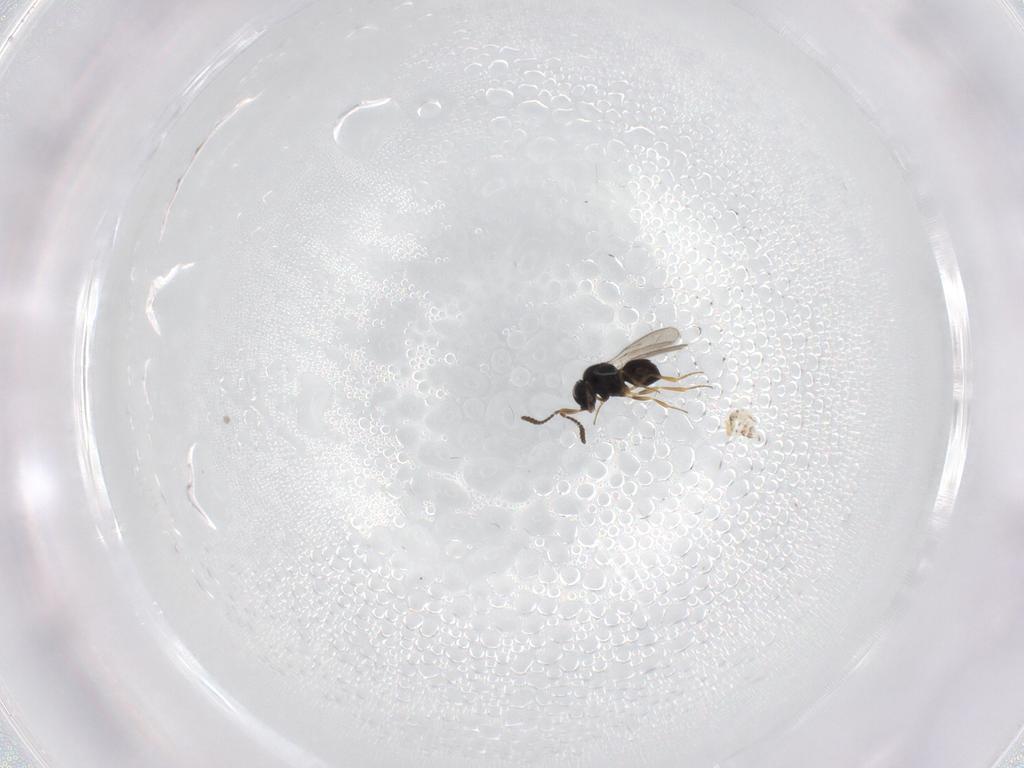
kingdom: Animalia
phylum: Arthropoda
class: Insecta
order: Hymenoptera
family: Scelionidae
